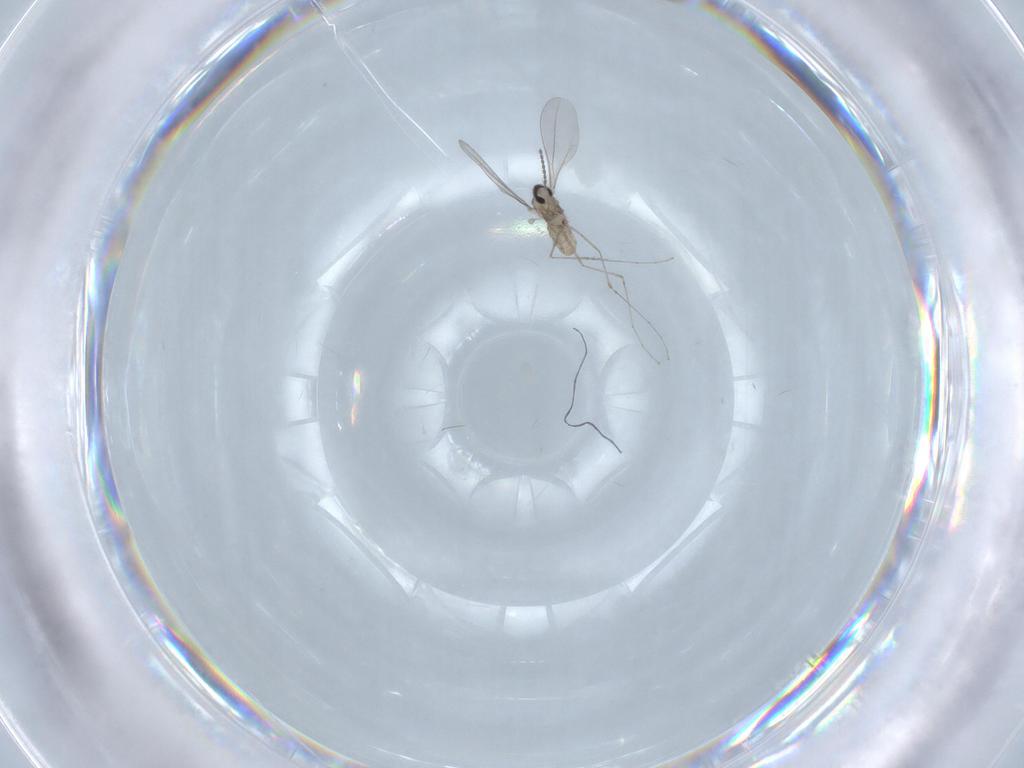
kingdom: Animalia
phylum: Arthropoda
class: Insecta
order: Diptera
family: Cecidomyiidae
